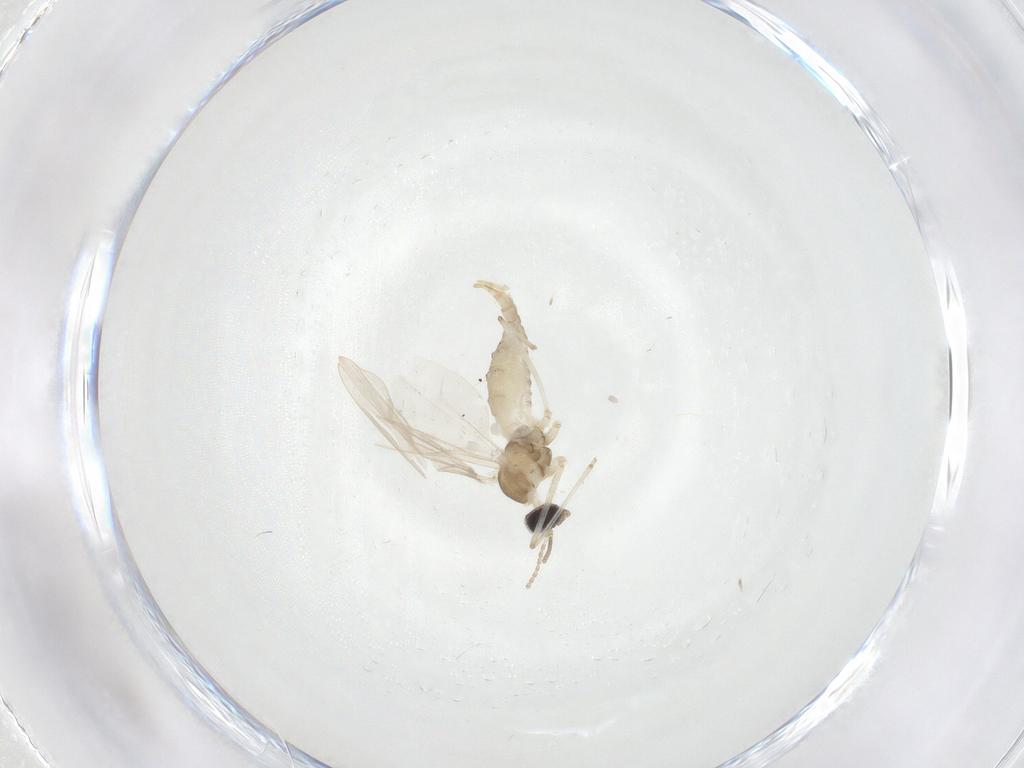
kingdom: Animalia
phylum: Arthropoda
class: Insecta
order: Diptera
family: Cecidomyiidae
